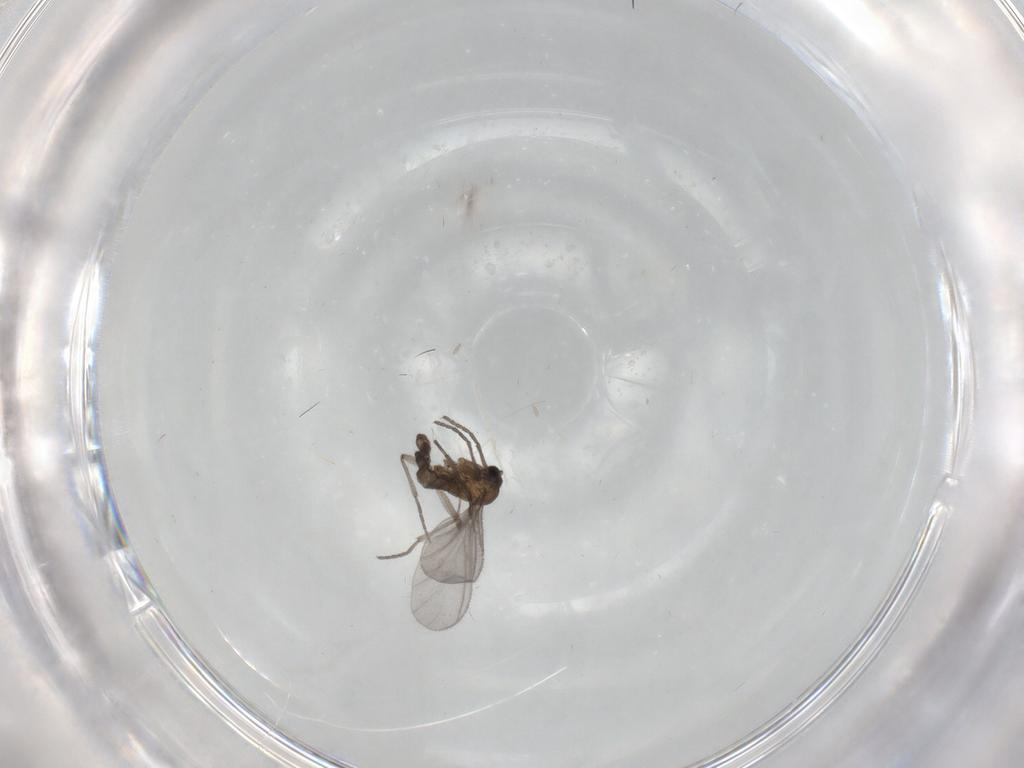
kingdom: Animalia
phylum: Arthropoda
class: Insecta
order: Diptera
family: Sciaridae
